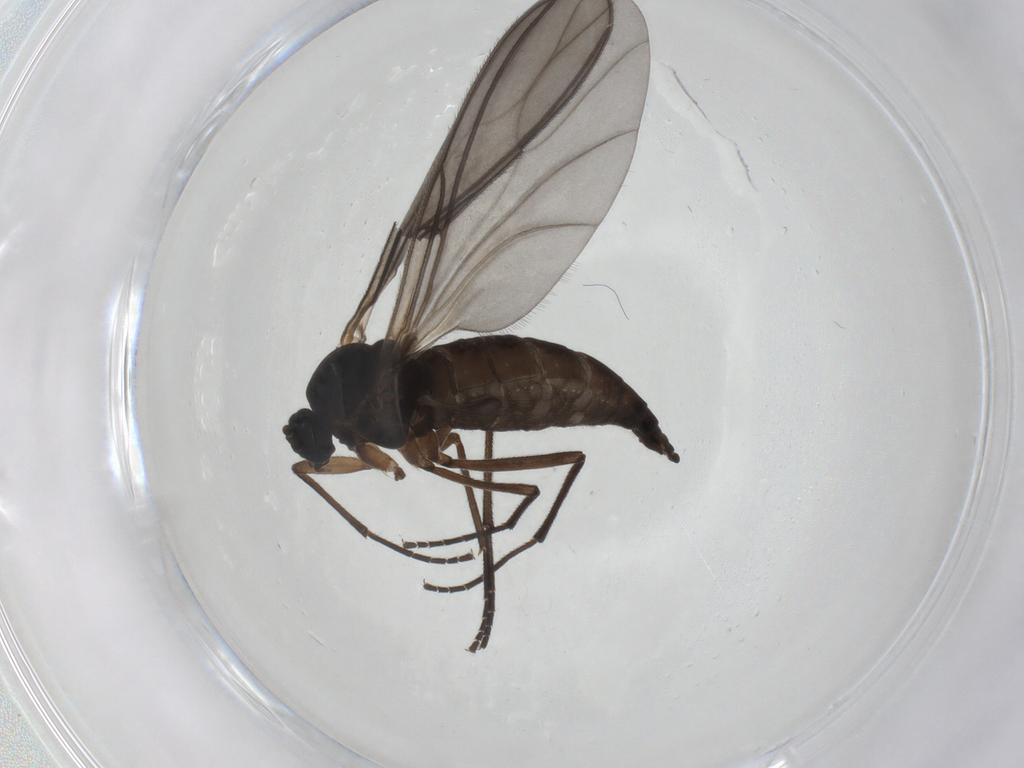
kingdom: Animalia
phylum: Arthropoda
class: Insecta
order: Diptera
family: Sciaridae
